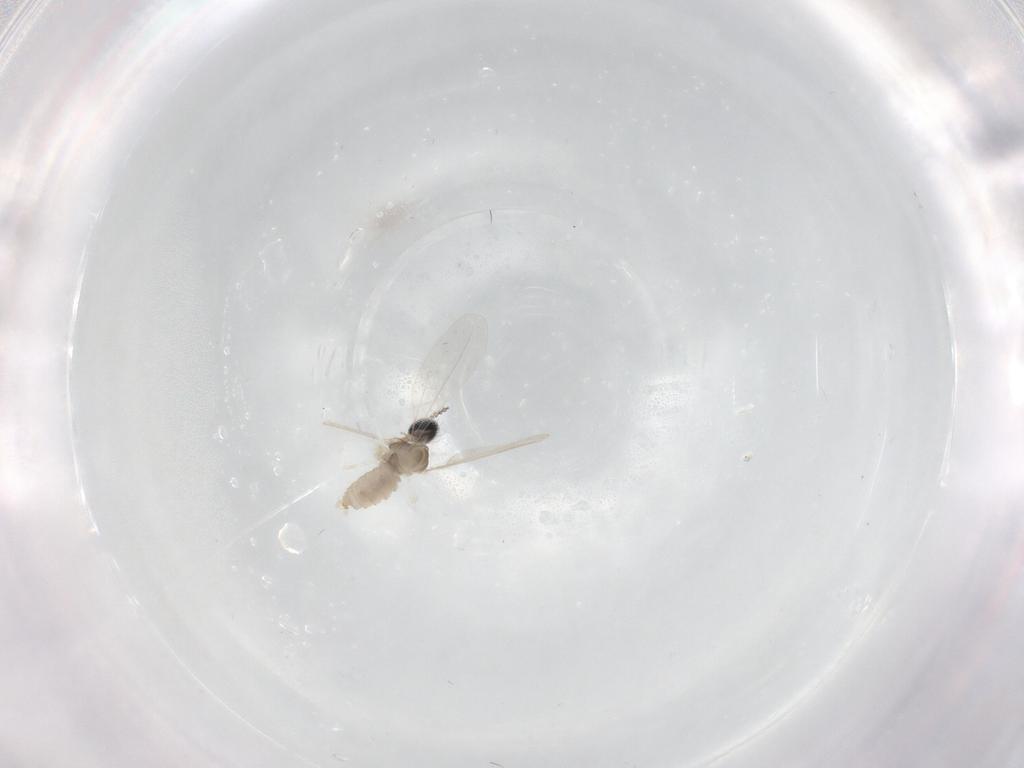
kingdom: Animalia
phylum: Arthropoda
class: Insecta
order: Diptera
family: Cecidomyiidae
